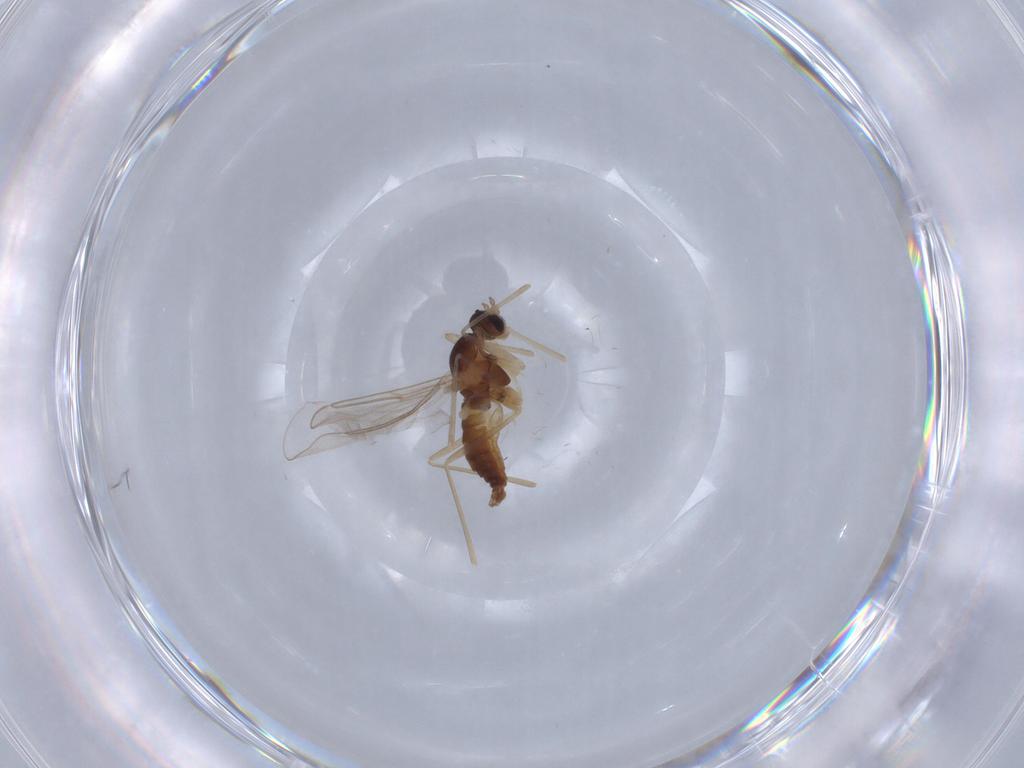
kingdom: Animalia
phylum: Arthropoda
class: Insecta
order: Diptera
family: Cecidomyiidae
